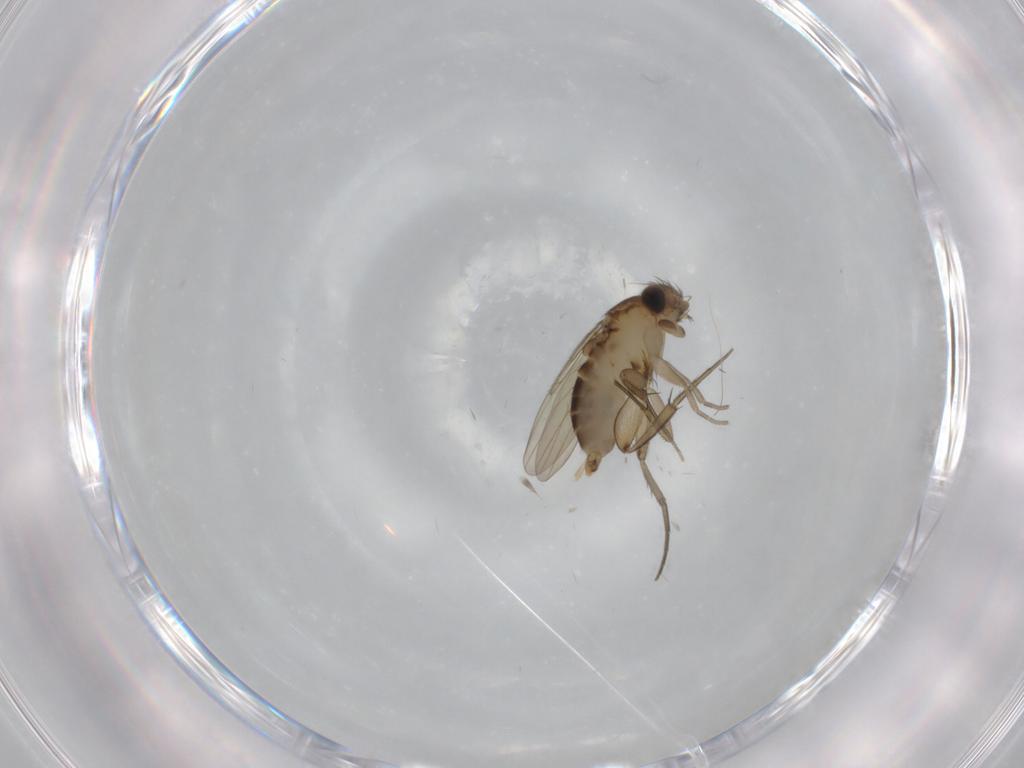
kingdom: Animalia
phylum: Arthropoda
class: Insecta
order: Diptera
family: Phoridae
